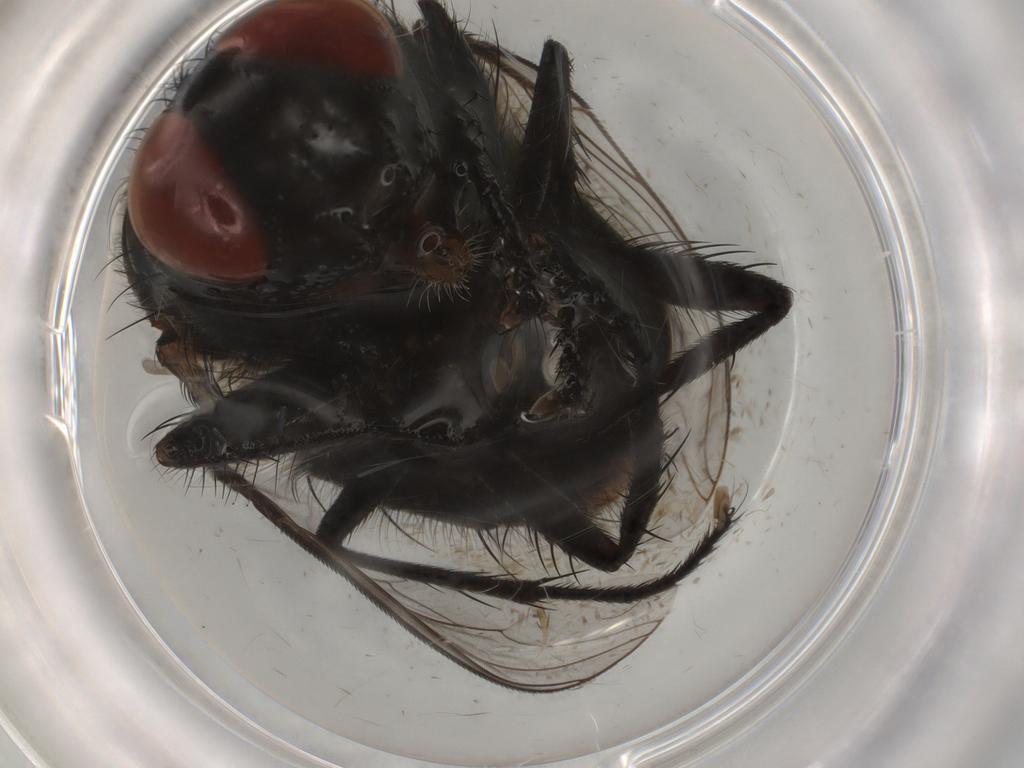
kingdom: Animalia
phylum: Arthropoda
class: Insecta
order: Diptera
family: Sarcophagidae
